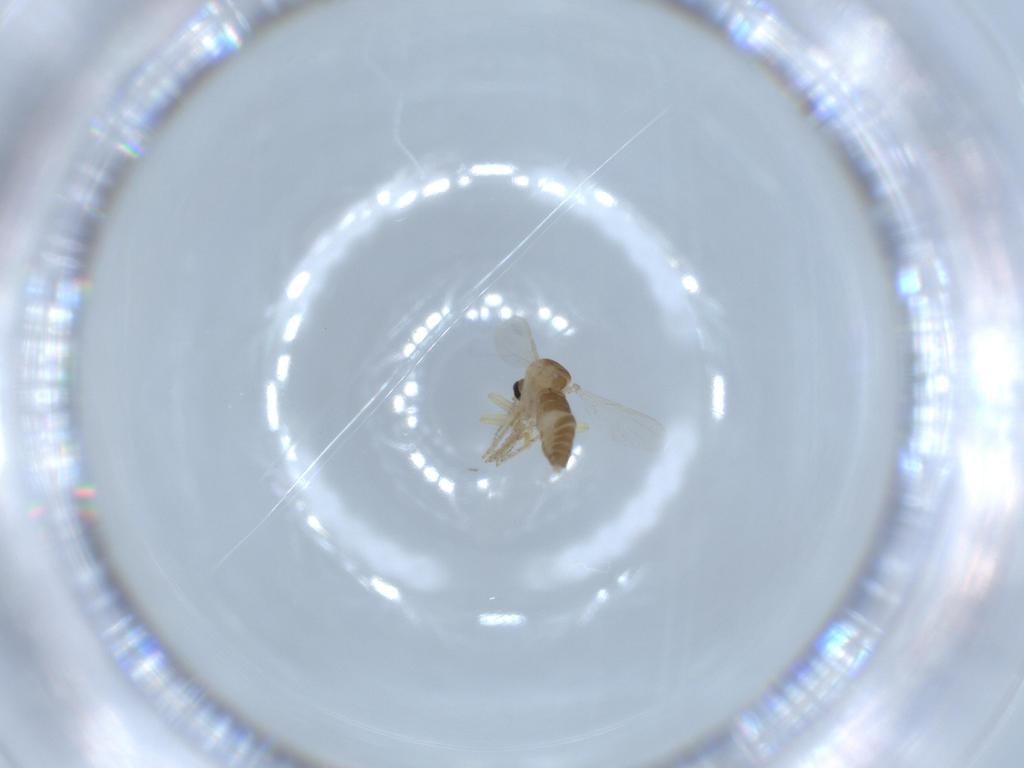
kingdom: Animalia
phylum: Arthropoda
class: Insecta
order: Diptera
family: Ceratopogonidae
